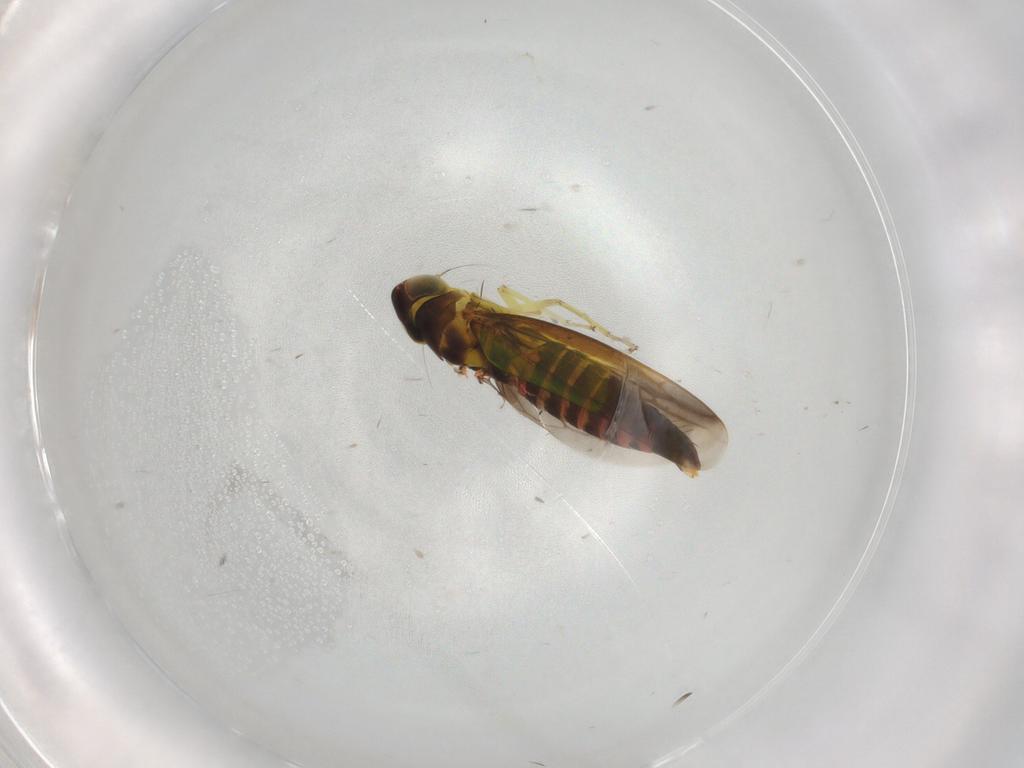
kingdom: Animalia
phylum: Arthropoda
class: Insecta
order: Hemiptera
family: Cicadellidae
